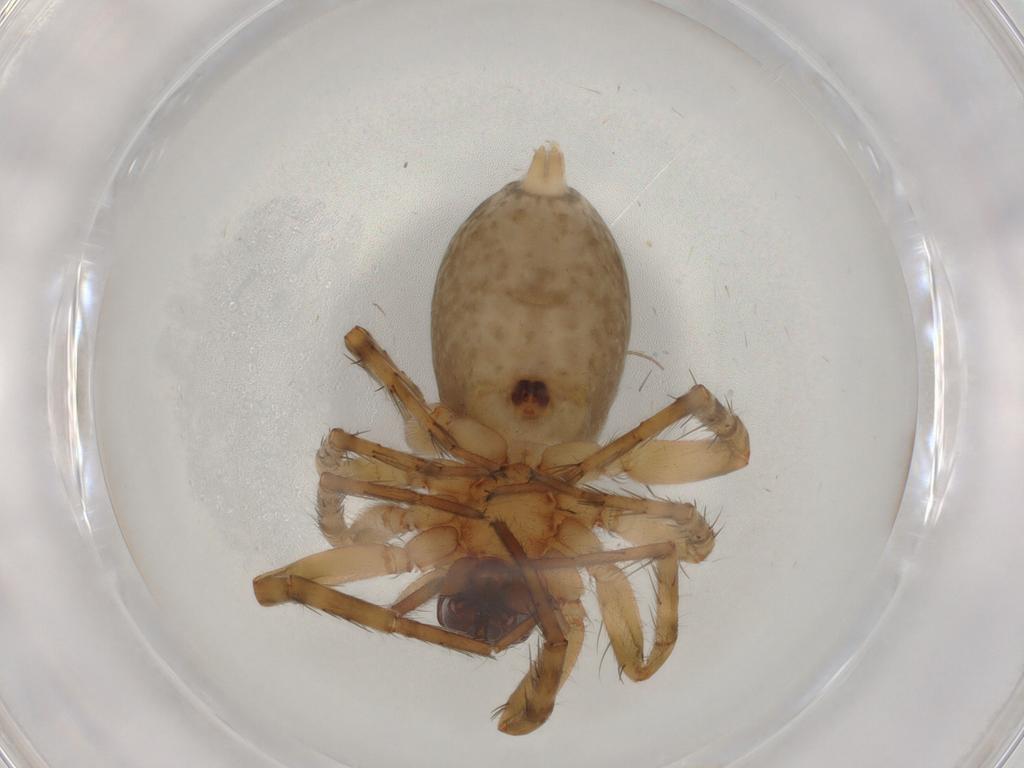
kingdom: Animalia
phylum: Arthropoda
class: Arachnida
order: Araneae
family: Anyphaenidae
